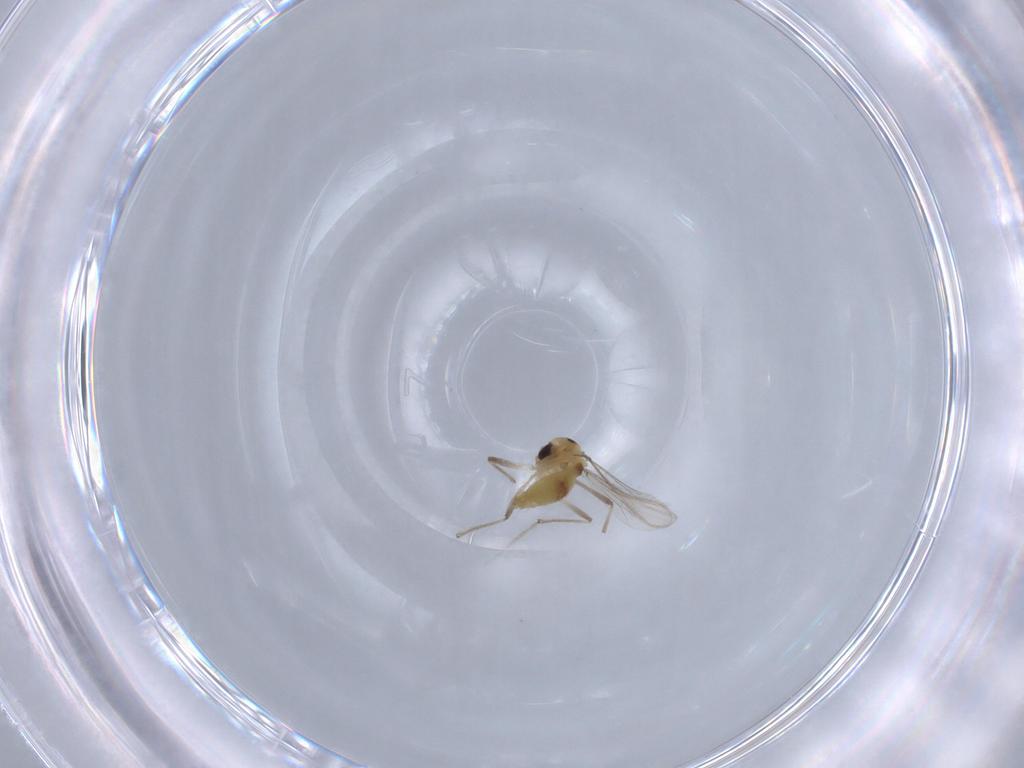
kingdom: Animalia
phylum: Arthropoda
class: Insecta
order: Diptera
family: Chironomidae
